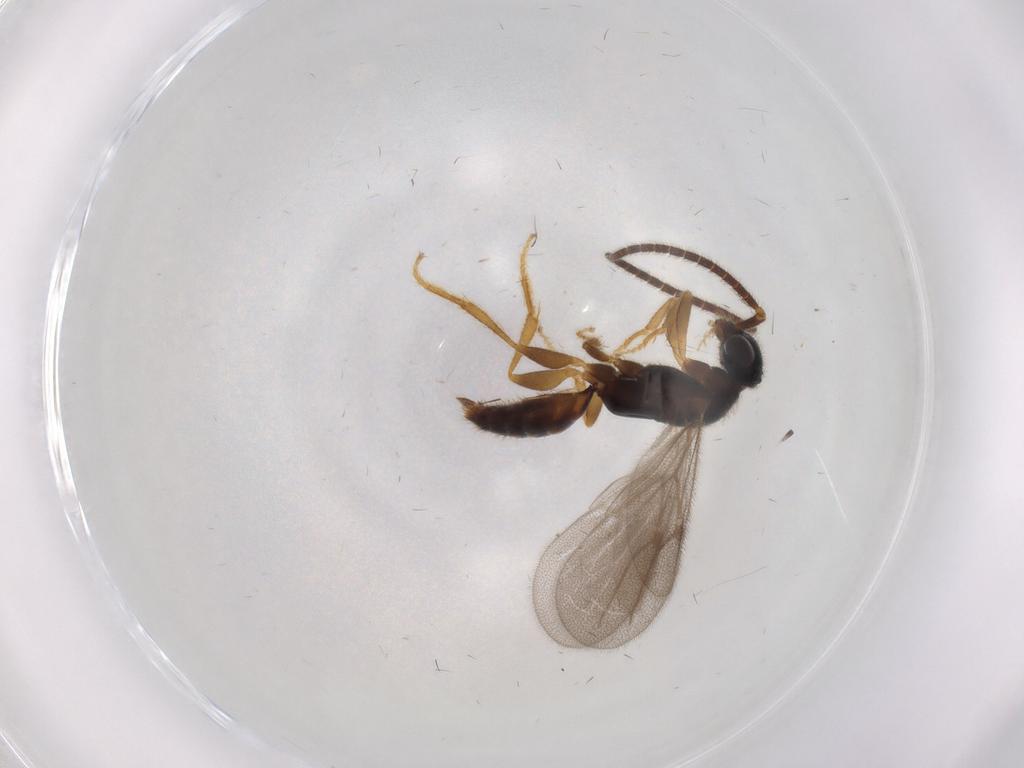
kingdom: Animalia
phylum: Arthropoda
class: Insecta
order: Hymenoptera
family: Bethylidae
